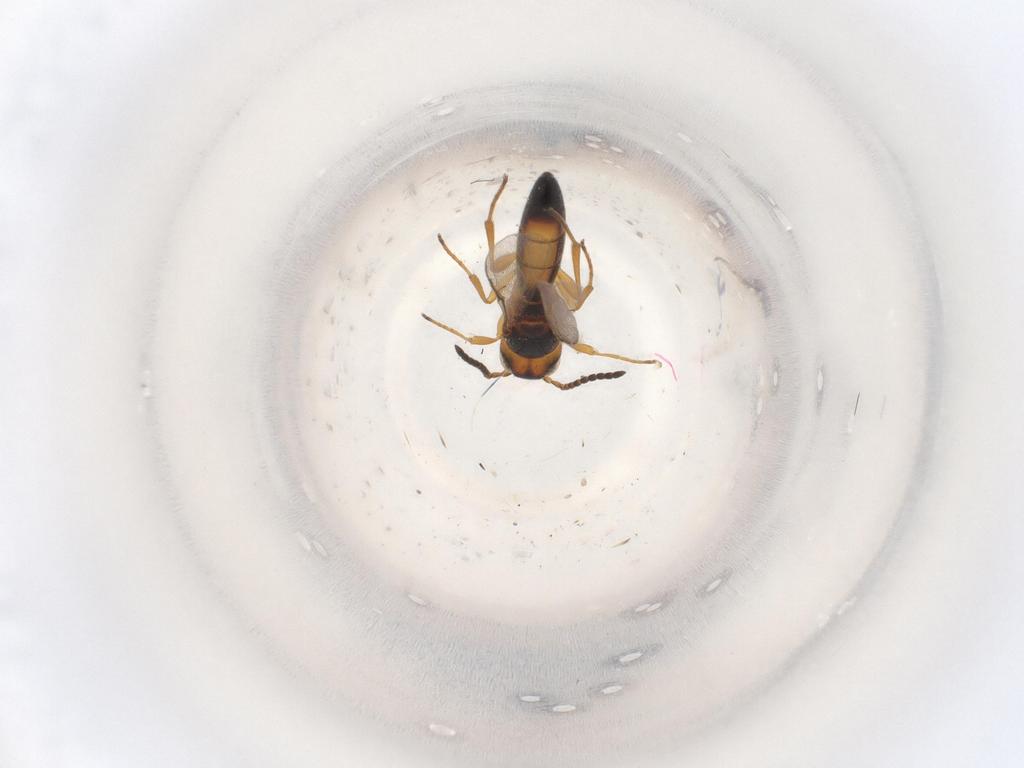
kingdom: Animalia
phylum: Arthropoda
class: Insecta
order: Hymenoptera
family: Scelionidae
